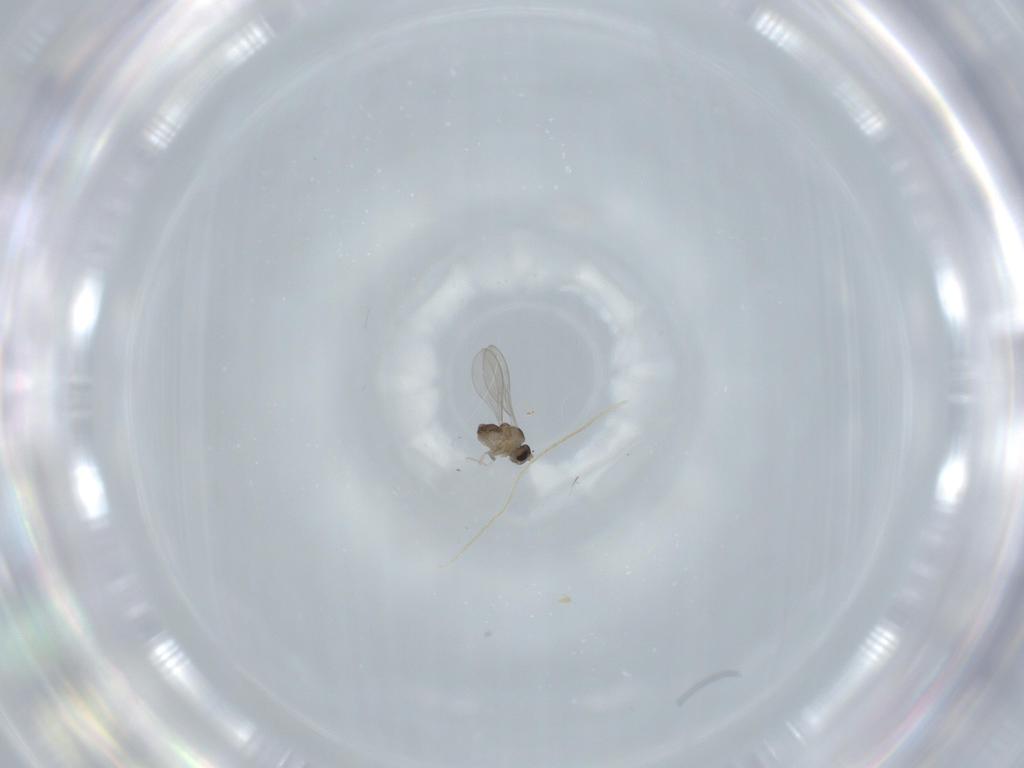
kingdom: Animalia
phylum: Arthropoda
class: Insecta
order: Diptera
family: Cecidomyiidae
